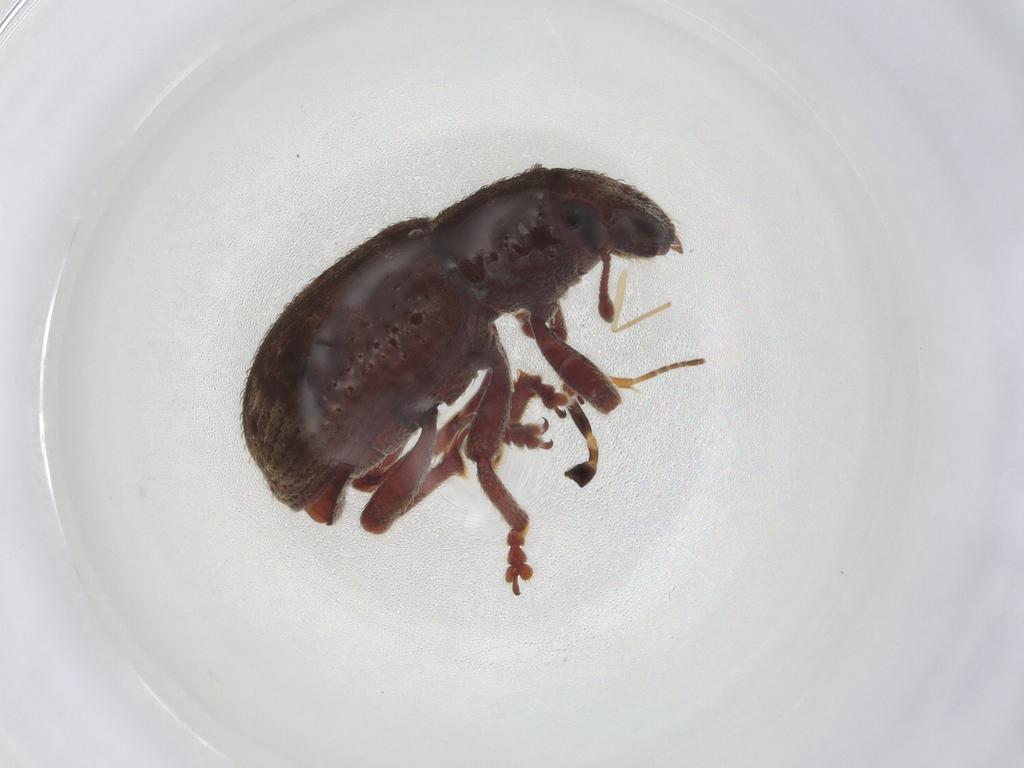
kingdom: Animalia
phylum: Arthropoda
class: Insecta
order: Coleoptera
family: Curculionidae
